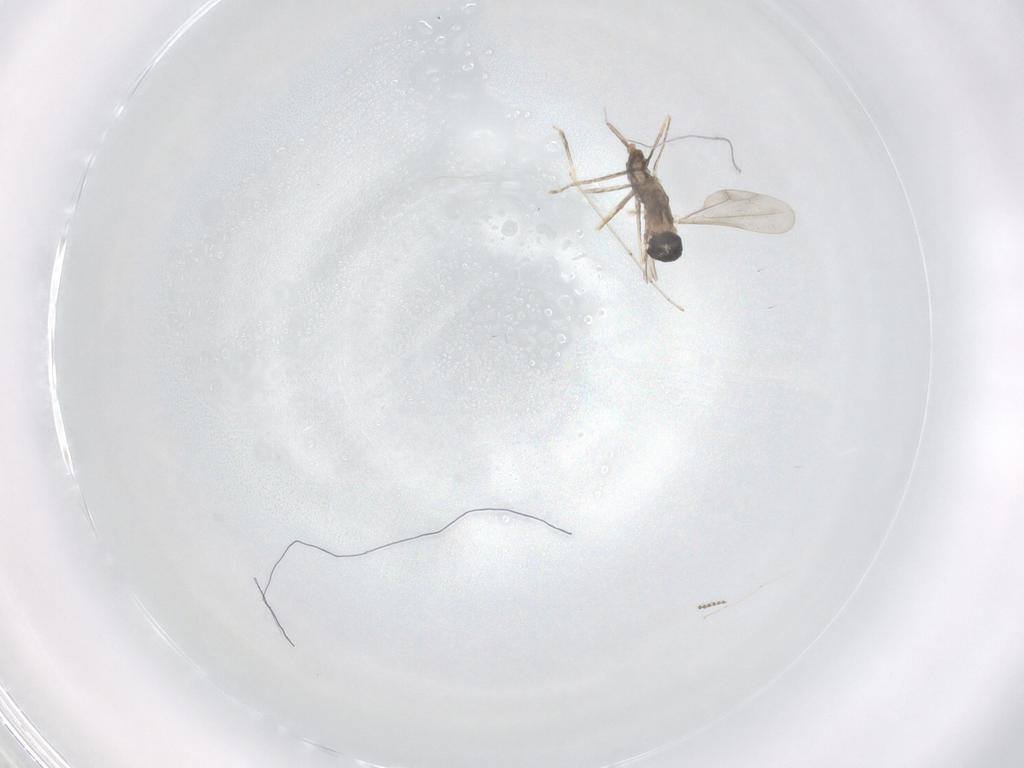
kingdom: Animalia
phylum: Arthropoda
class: Insecta
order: Diptera
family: Cecidomyiidae
